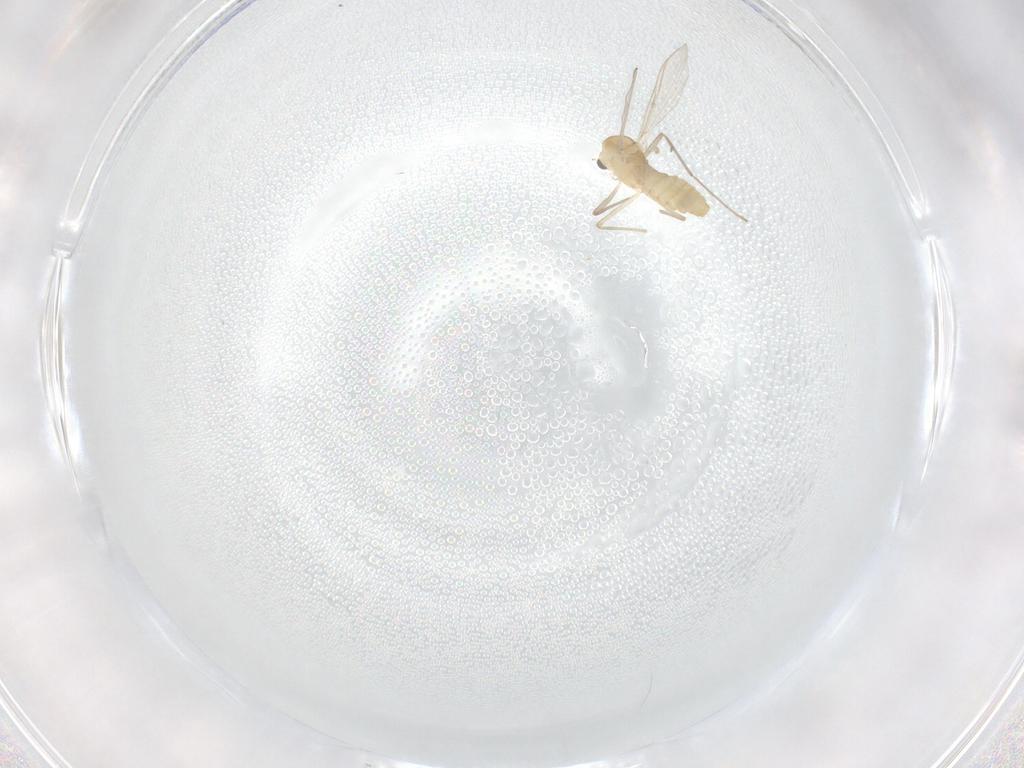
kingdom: Animalia
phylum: Arthropoda
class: Insecta
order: Diptera
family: Chironomidae
